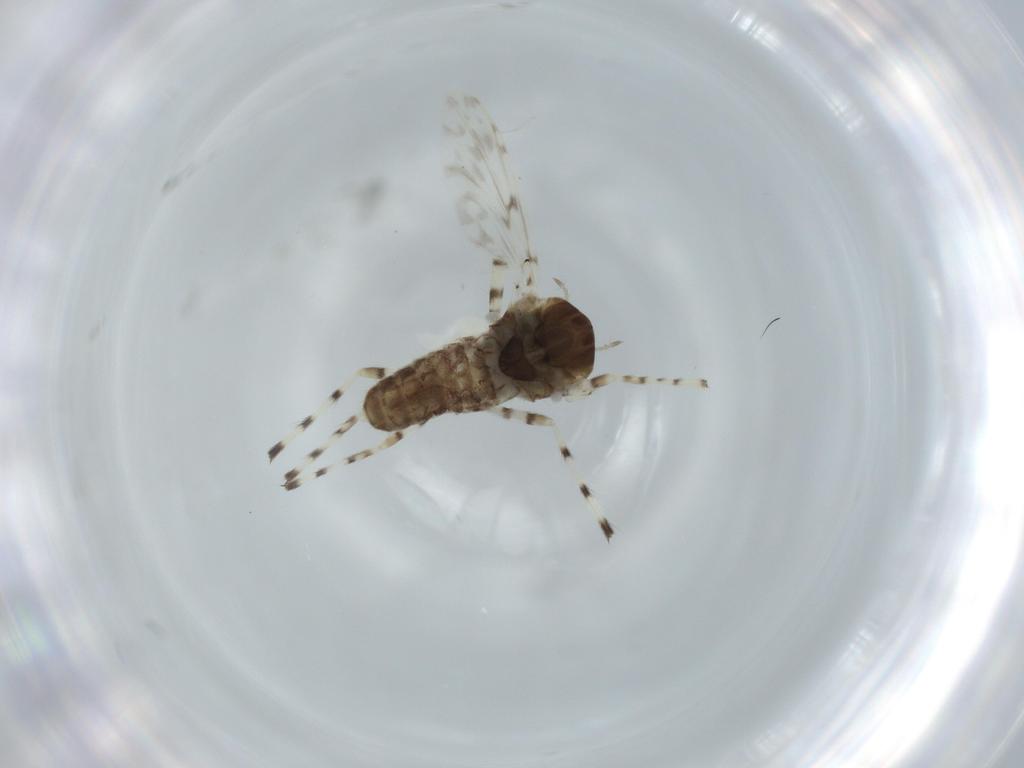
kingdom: Animalia
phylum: Arthropoda
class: Insecta
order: Diptera
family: Chironomidae
